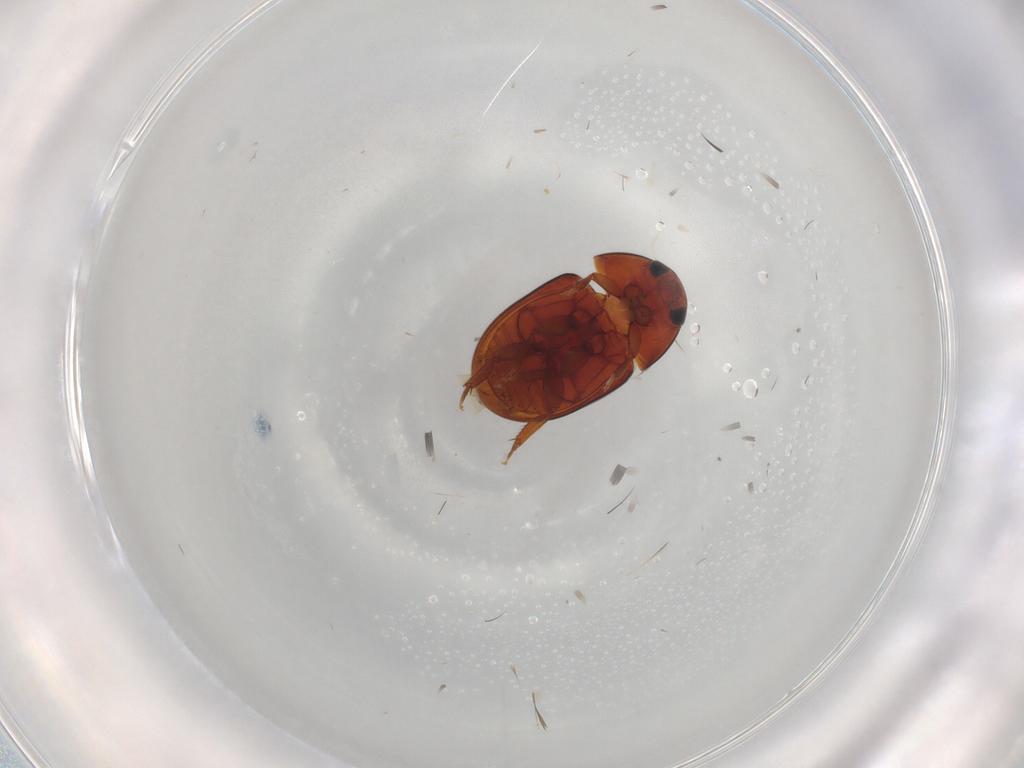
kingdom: Animalia
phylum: Arthropoda
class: Insecta
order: Coleoptera
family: Phalacridae
